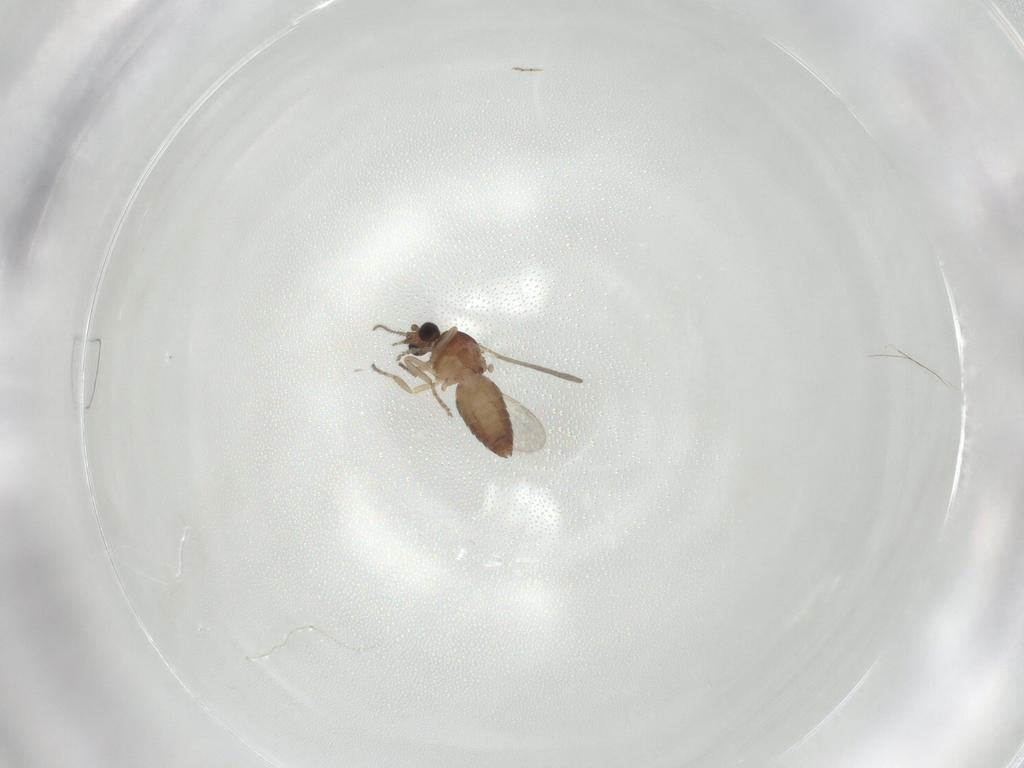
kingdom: Animalia
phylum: Arthropoda
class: Insecta
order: Diptera
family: Ceratopogonidae
